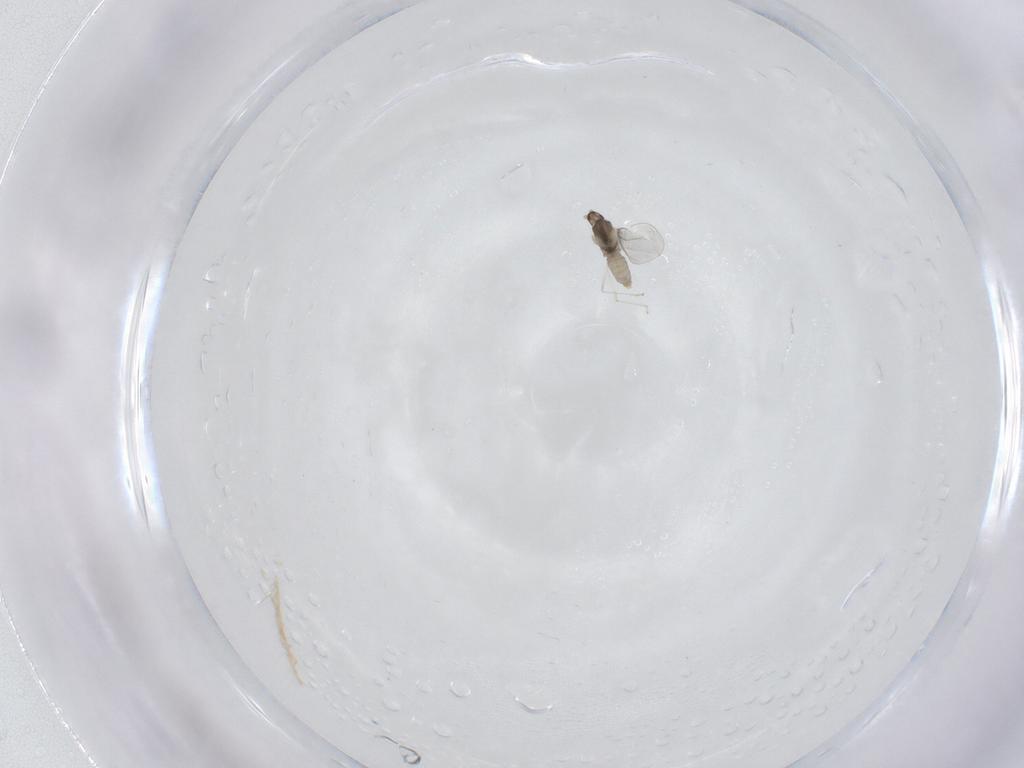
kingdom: Animalia
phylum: Arthropoda
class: Insecta
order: Diptera
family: Cecidomyiidae
